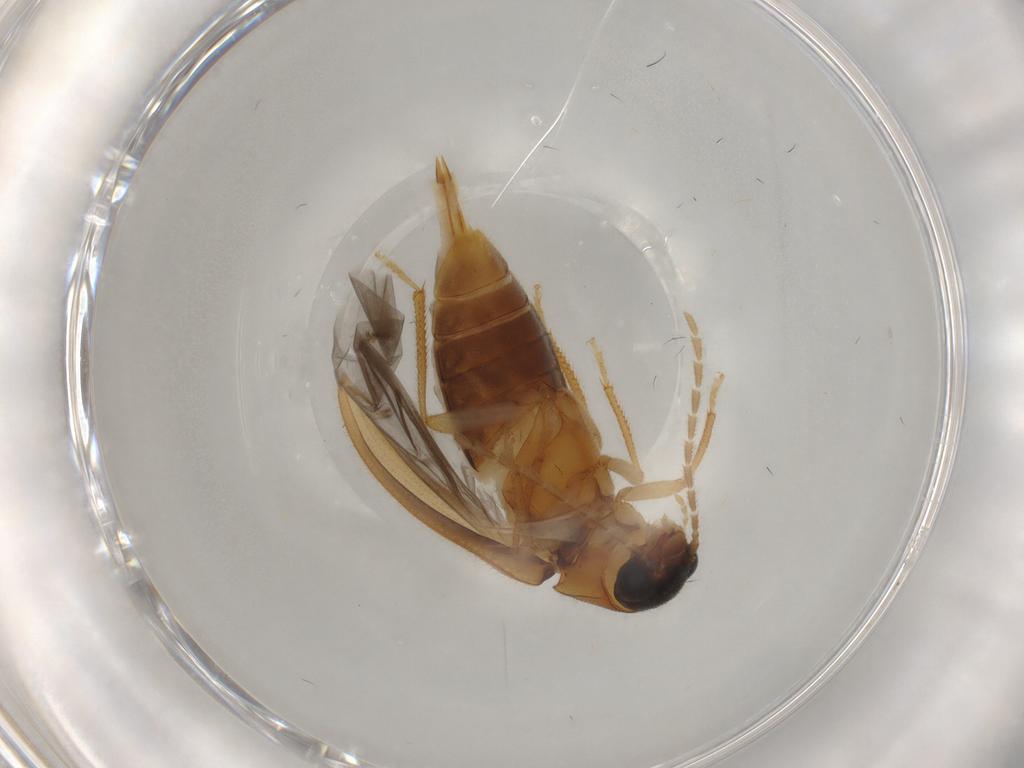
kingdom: Animalia
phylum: Arthropoda
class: Insecta
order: Coleoptera
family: Ptilodactylidae
